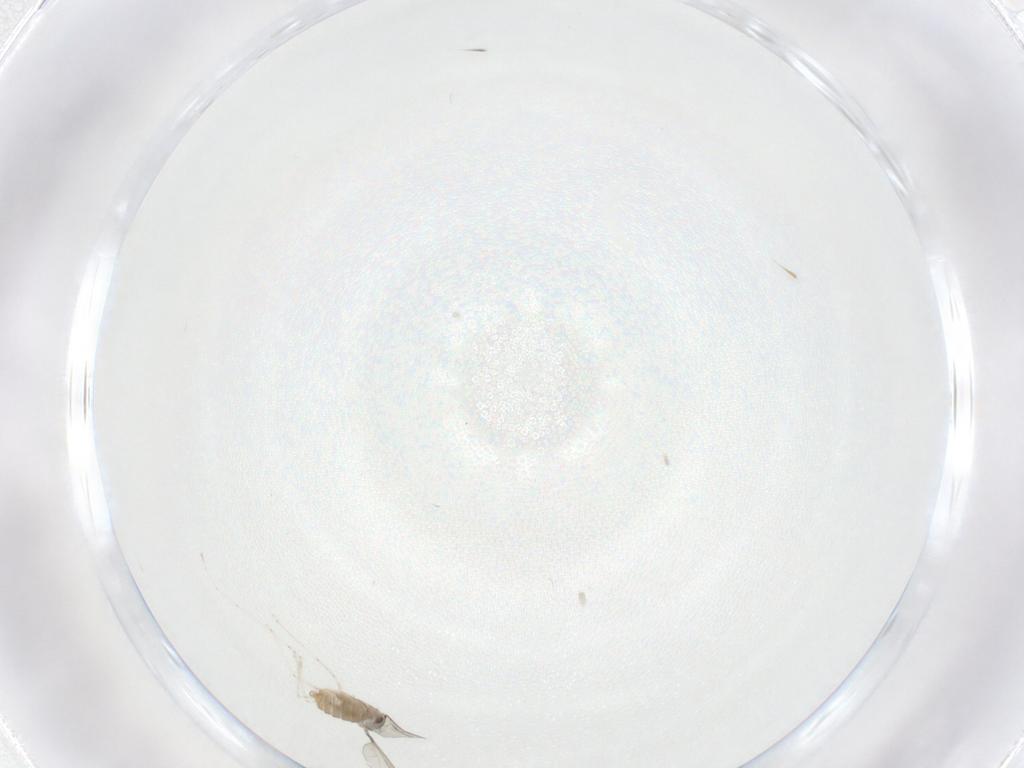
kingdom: Animalia
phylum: Arthropoda
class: Insecta
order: Diptera
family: Cecidomyiidae
